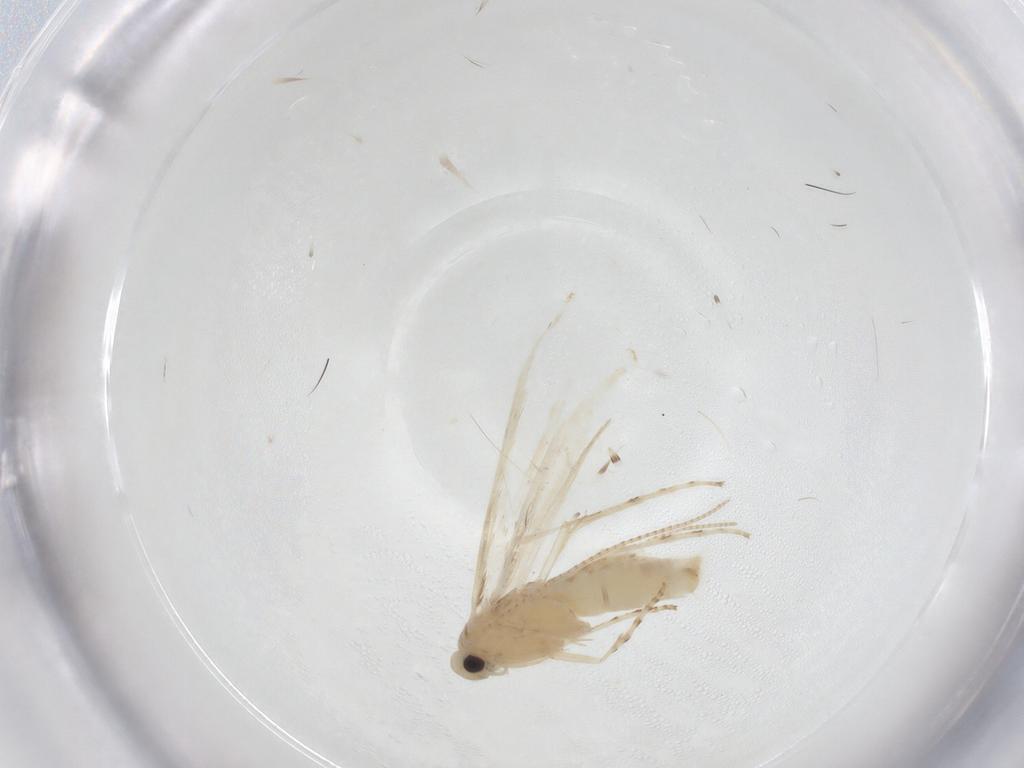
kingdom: Animalia
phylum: Arthropoda
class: Insecta
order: Lepidoptera
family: Gracillariidae
